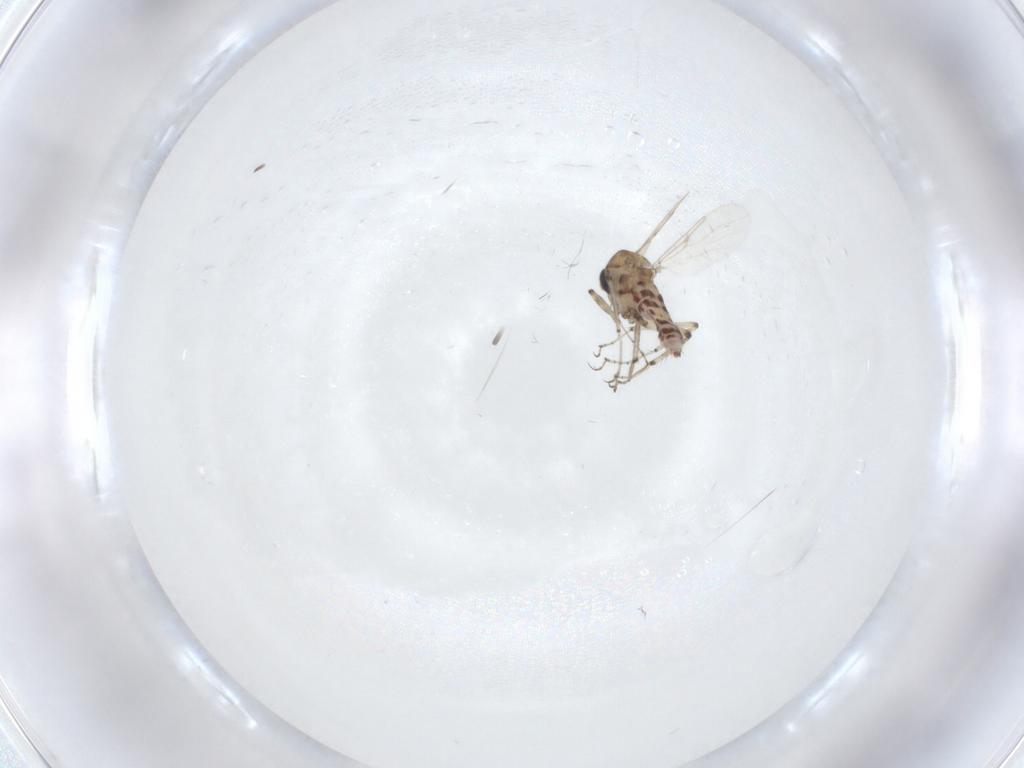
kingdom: Animalia
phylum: Arthropoda
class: Insecta
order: Diptera
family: Ceratopogonidae
